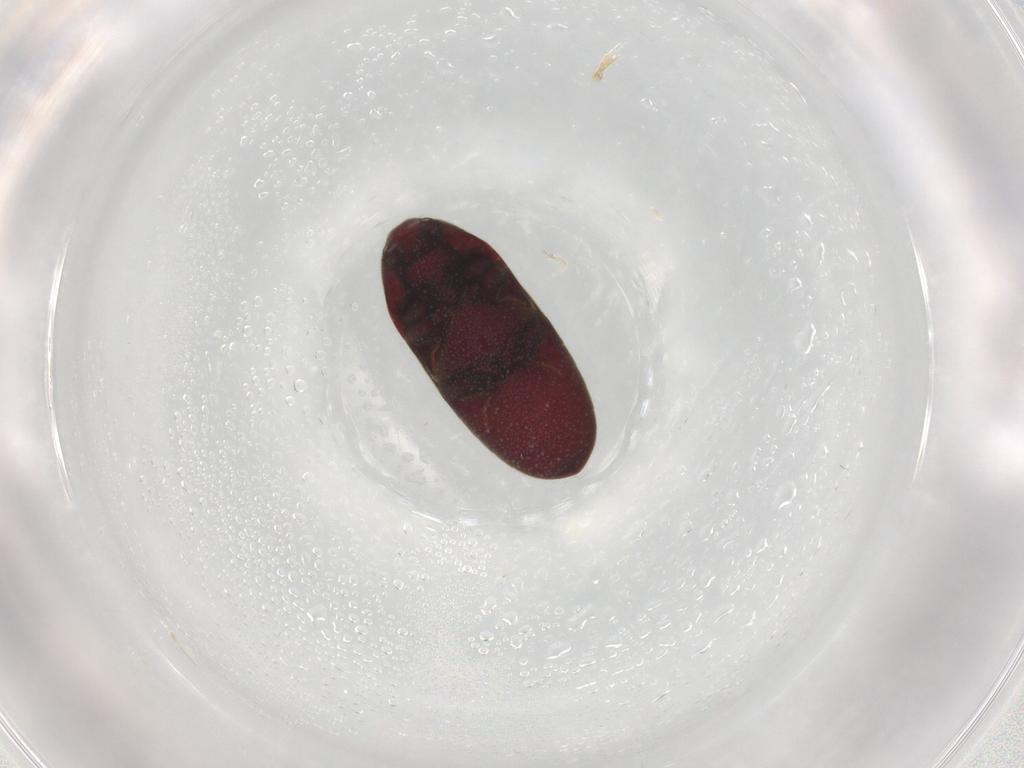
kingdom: Animalia
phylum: Arthropoda
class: Insecta
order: Coleoptera
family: Throscidae
